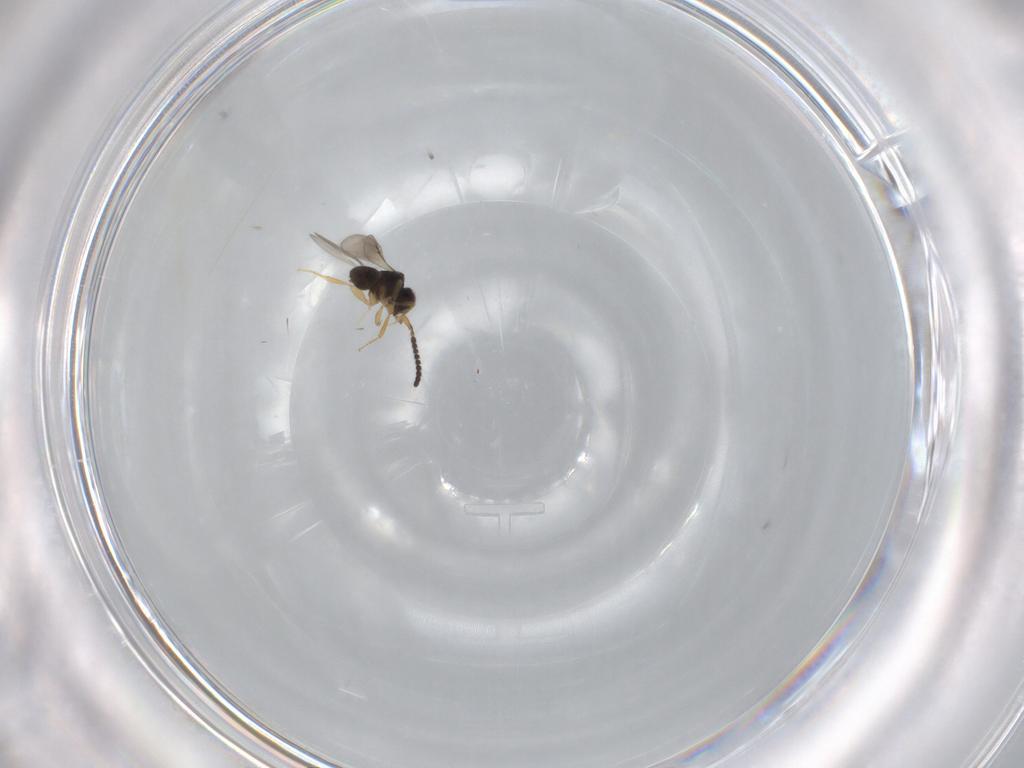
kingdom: Animalia
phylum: Arthropoda
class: Insecta
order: Hymenoptera
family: Ceraphronidae
